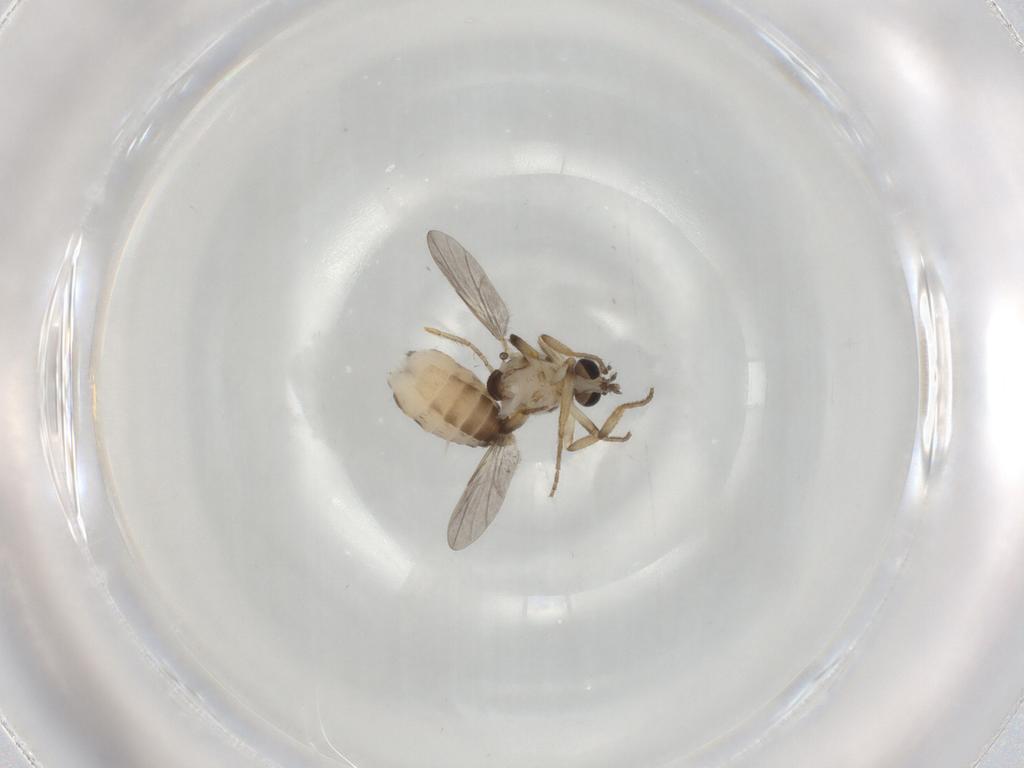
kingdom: Animalia
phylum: Arthropoda
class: Insecta
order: Diptera
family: Ceratopogonidae
